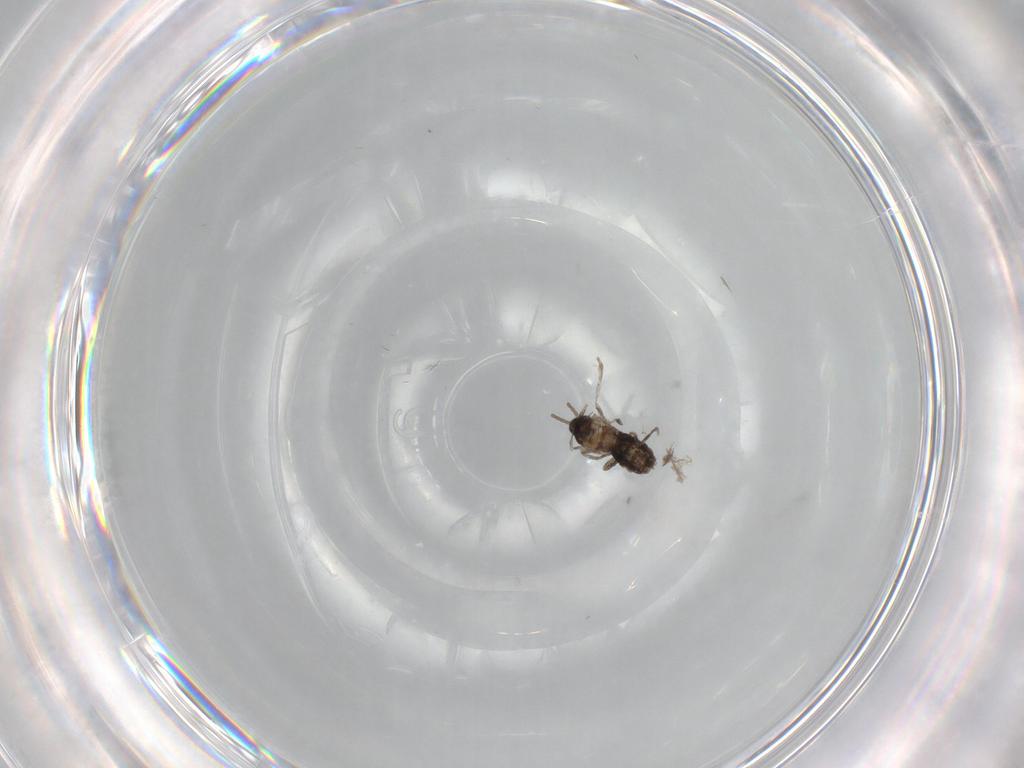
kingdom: Animalia
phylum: Arthropoda
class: Insecta
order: Diptera
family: Cecidomyiidae
